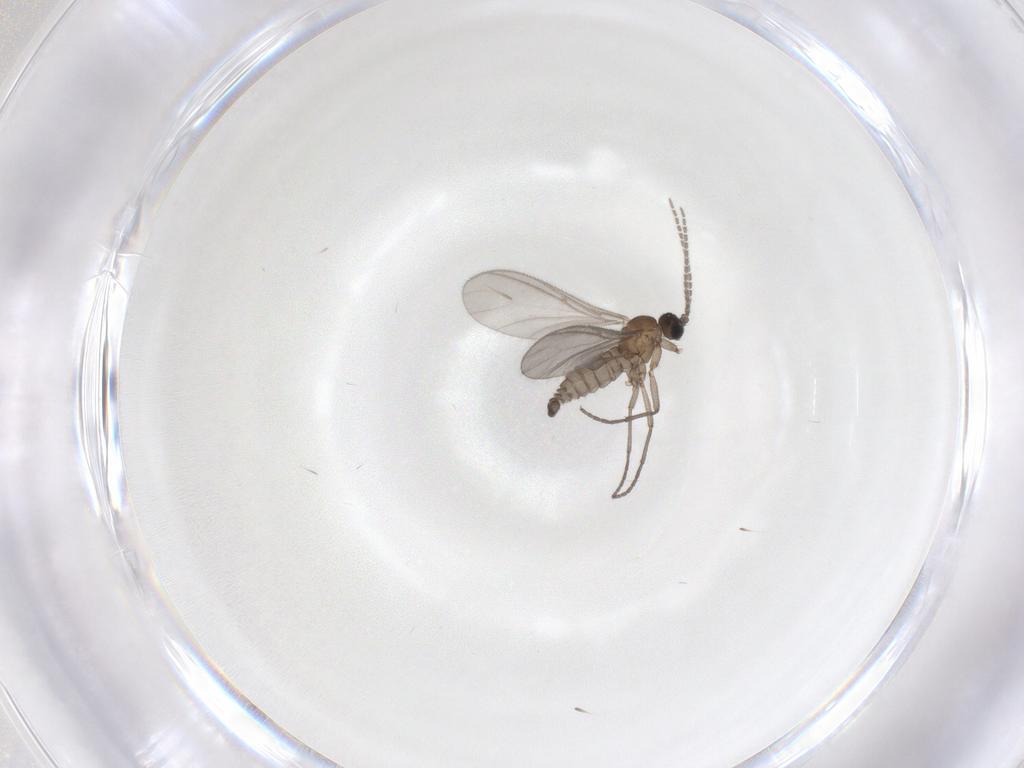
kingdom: Animalia
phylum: Arthropoda
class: Insecta
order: Diptera
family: Sciaridae
